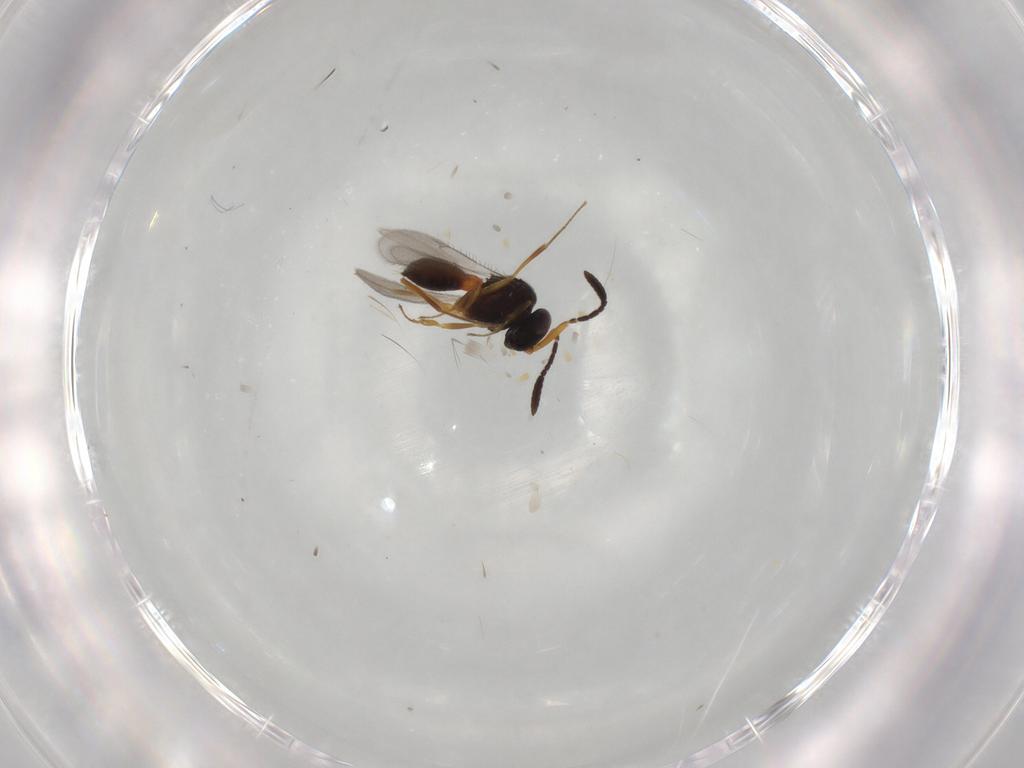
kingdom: Animalia
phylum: Arthropoda
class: Insecta
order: Hymenoptera
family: Scelionidae
